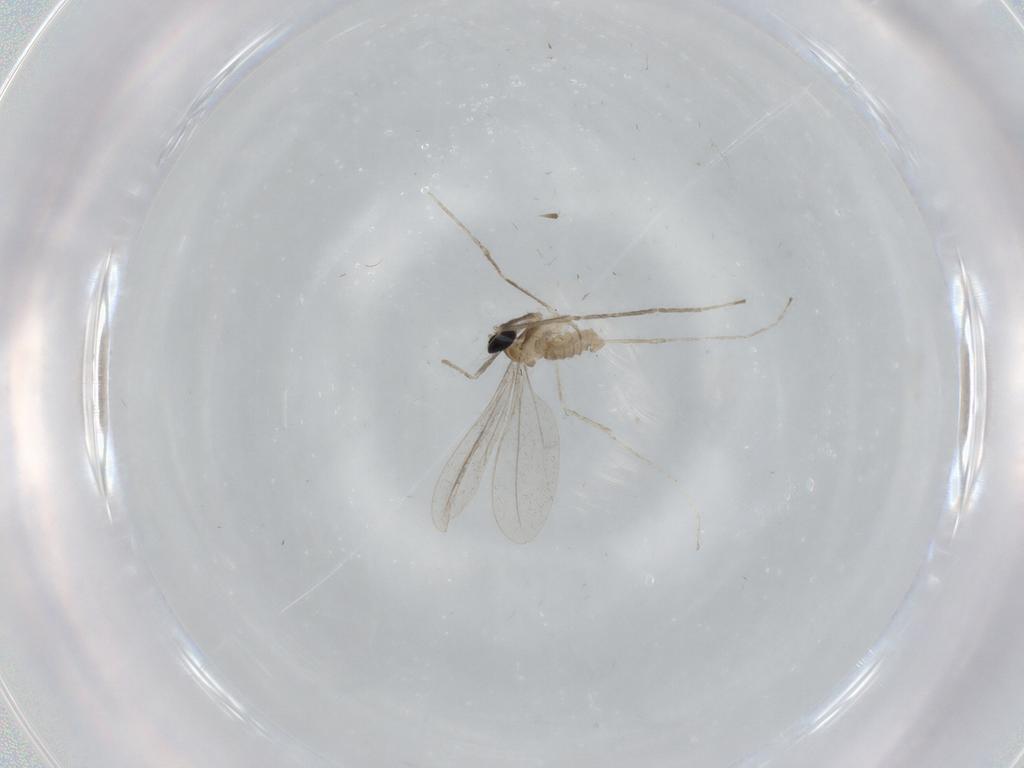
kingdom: Animalia
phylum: Arthropoda
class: Insecta
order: Diptera
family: Cecidomyiidae
